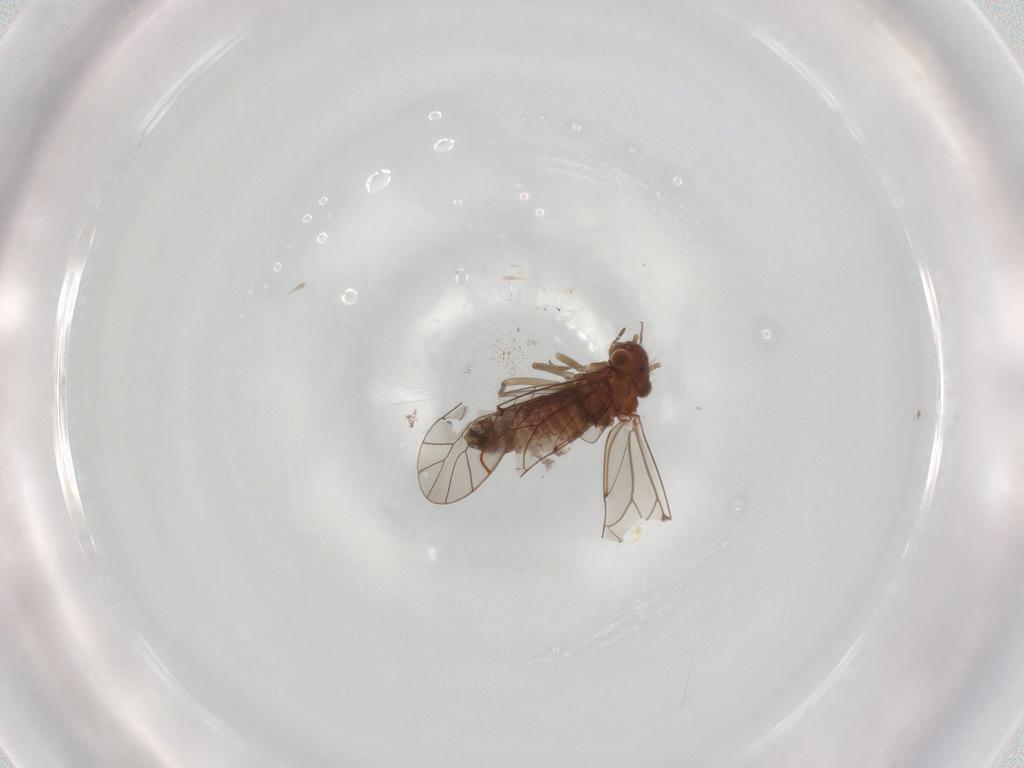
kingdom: Animalia
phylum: Arthropoda
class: Insecta
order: Psocodea
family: Lachesillidae
